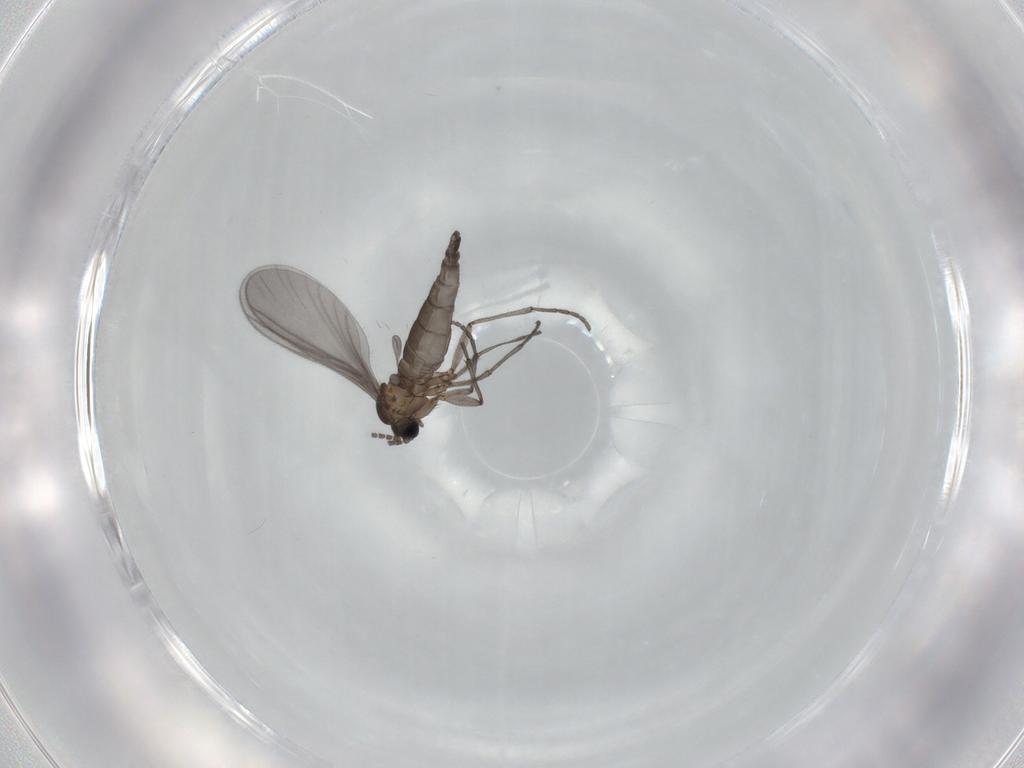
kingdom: Animalia
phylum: Arthropoda
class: Insecta
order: Diptera
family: Sciaridae
